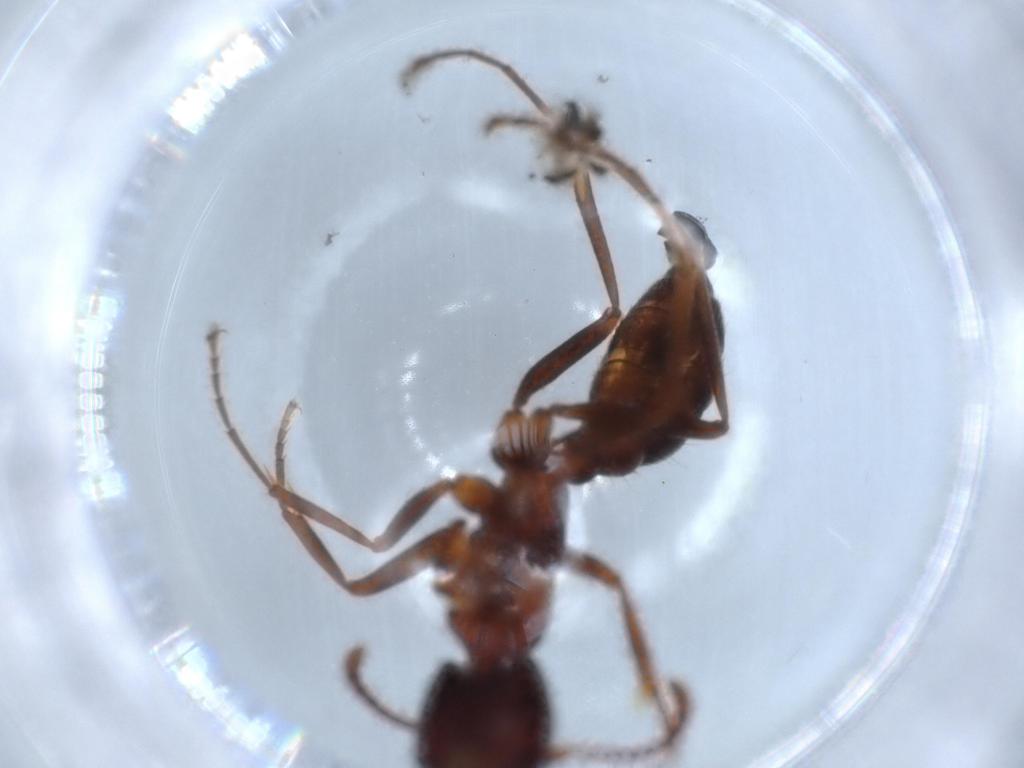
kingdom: Animalia
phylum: Arthropoda
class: Insecta
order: Hymenoptera
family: Formicidae
